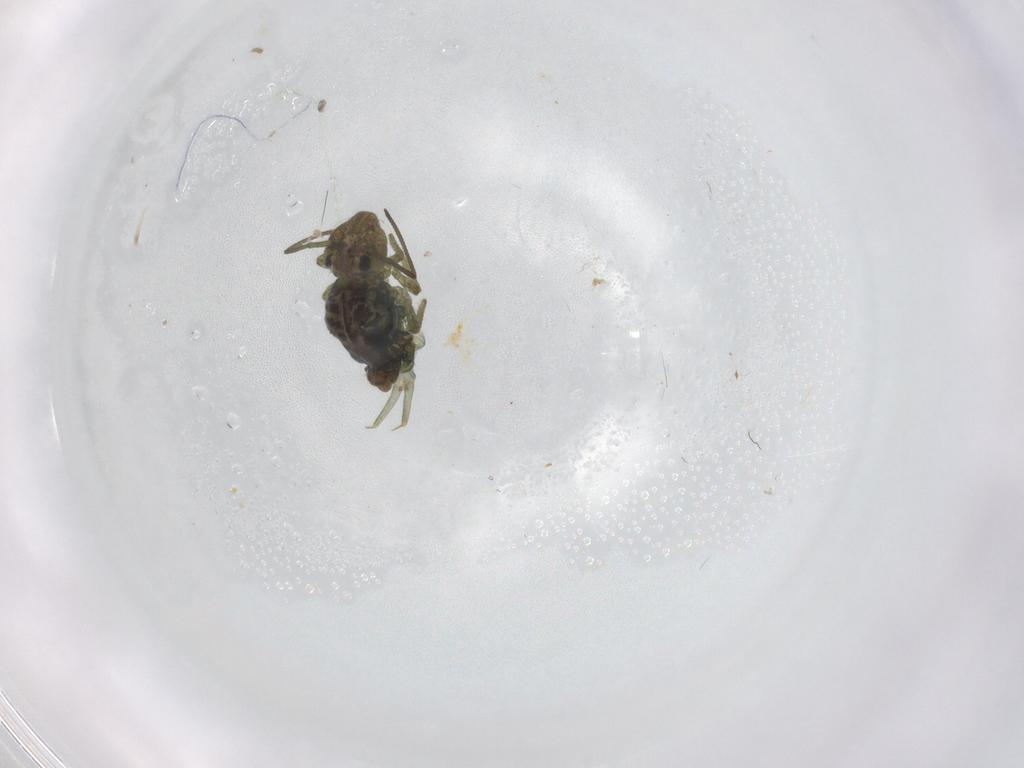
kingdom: Animalia
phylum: Arthropoda
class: Collembola
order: Symphypleona
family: Sminthuridae
